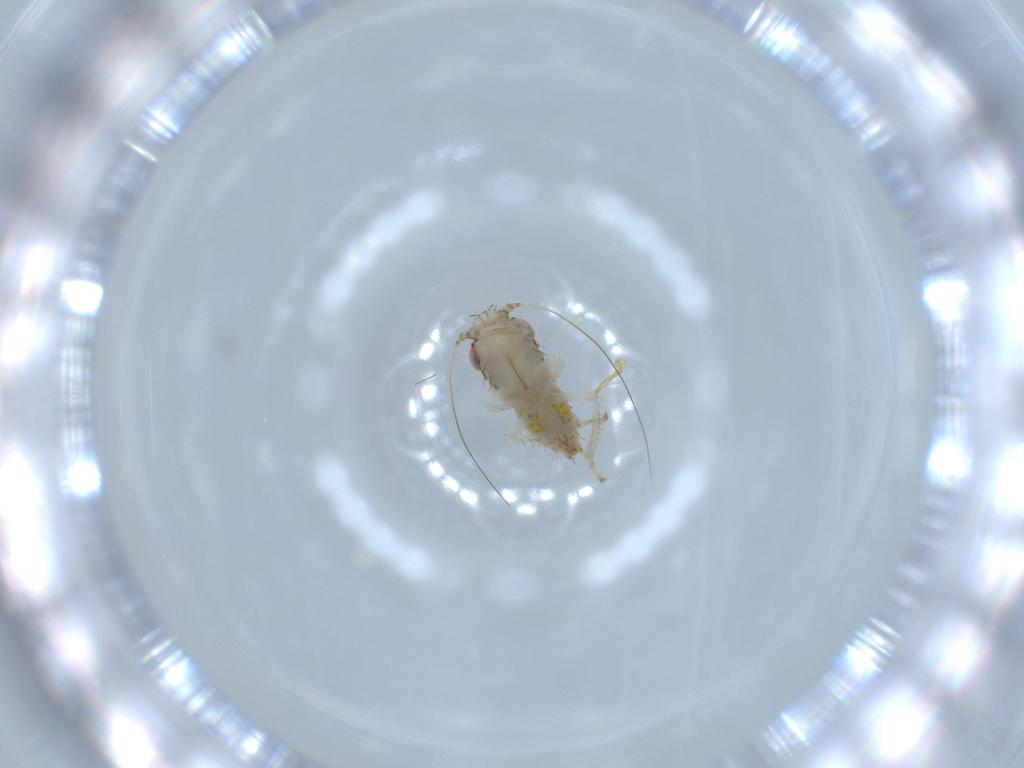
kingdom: Animalia
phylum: Arthropoda
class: Insecta
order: Hemiptera
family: Cicadellidae
